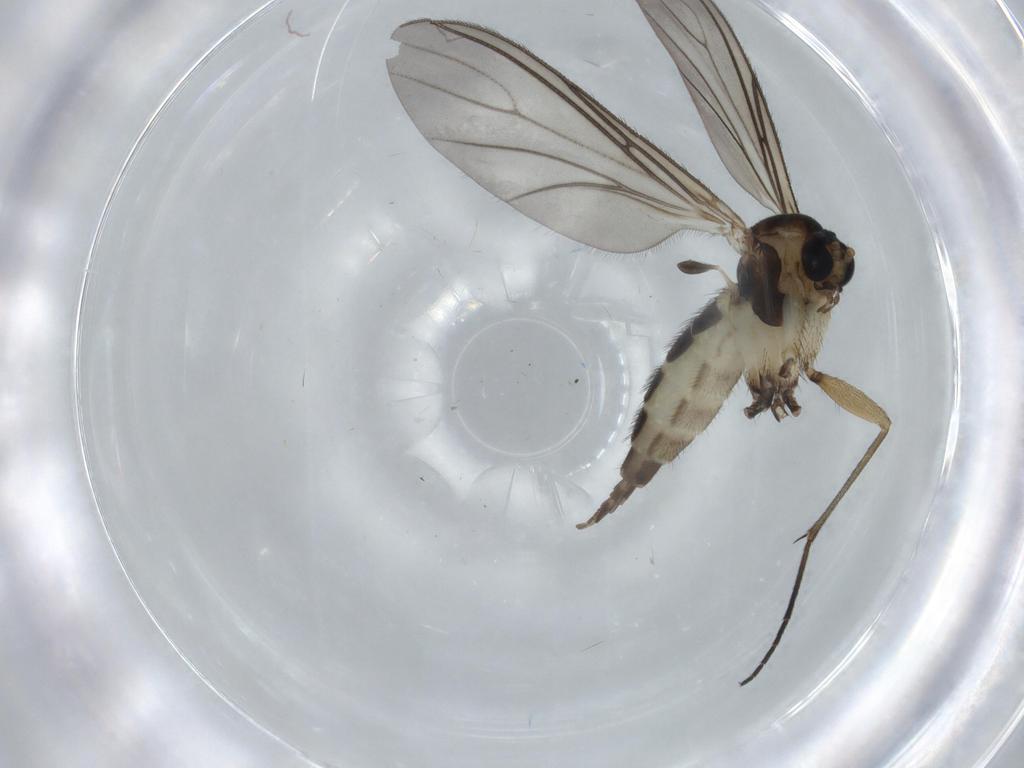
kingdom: Animalia
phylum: Arthropoda
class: Insecta
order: Diptera
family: Sciaridae
